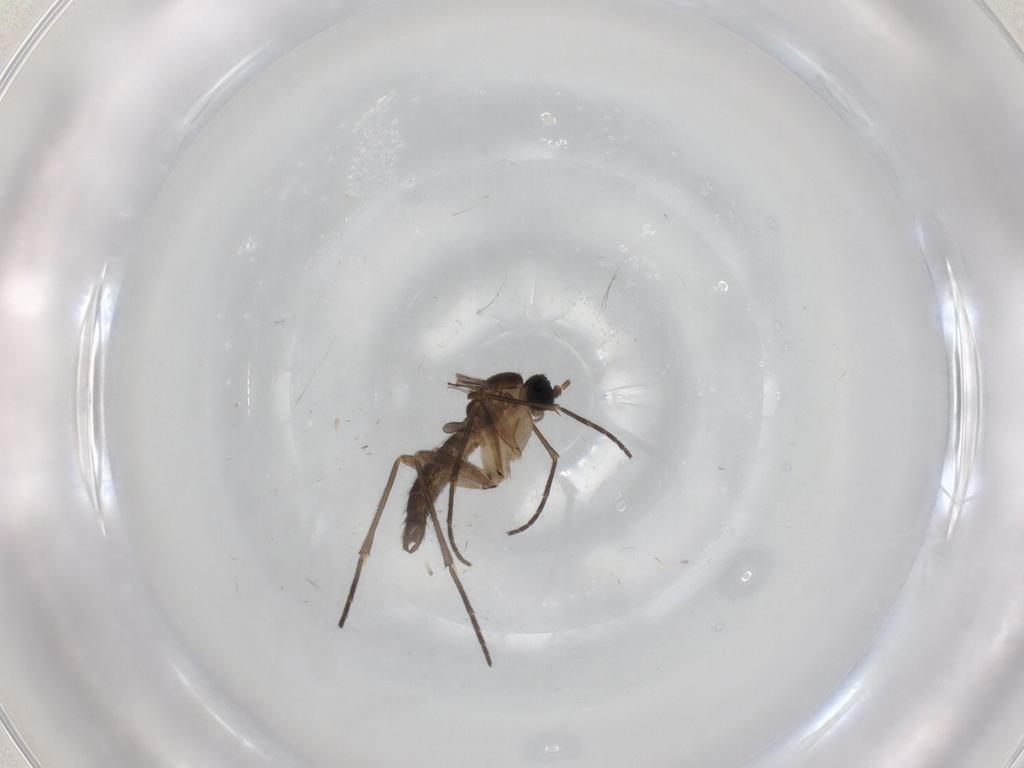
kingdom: Animalia
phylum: Arthropoda
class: Insecta
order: Diptera
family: Sciaridae
